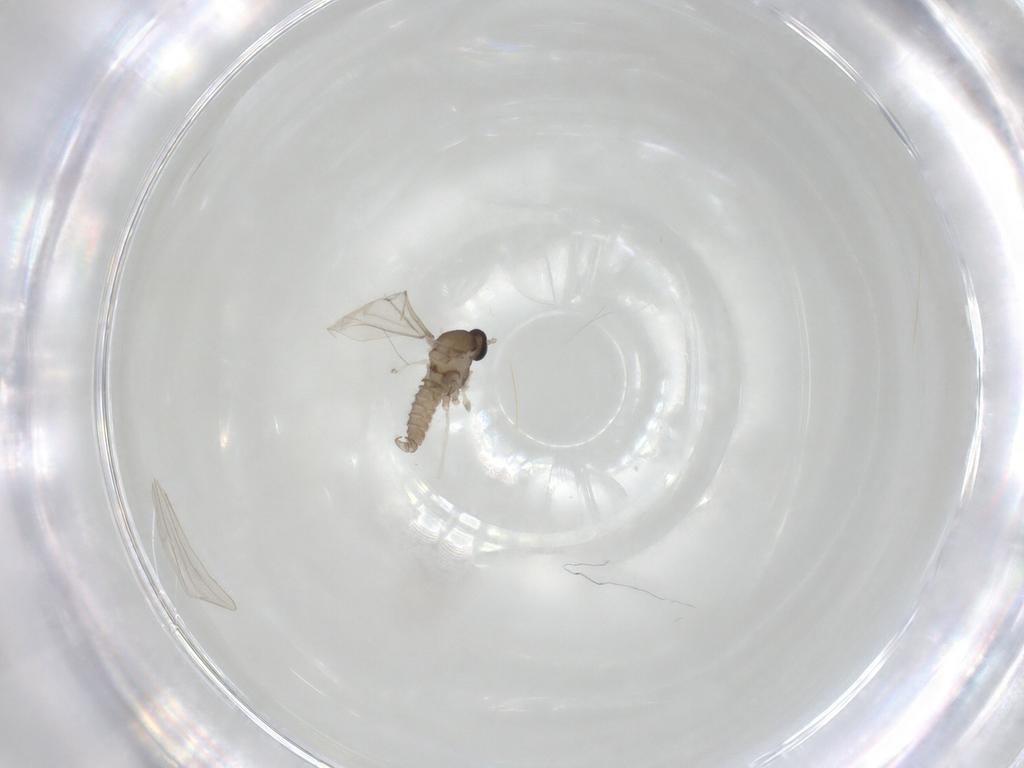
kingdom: Animalia
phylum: Arthropoda
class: Insecta
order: Diptera
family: Cecidomyiidae
